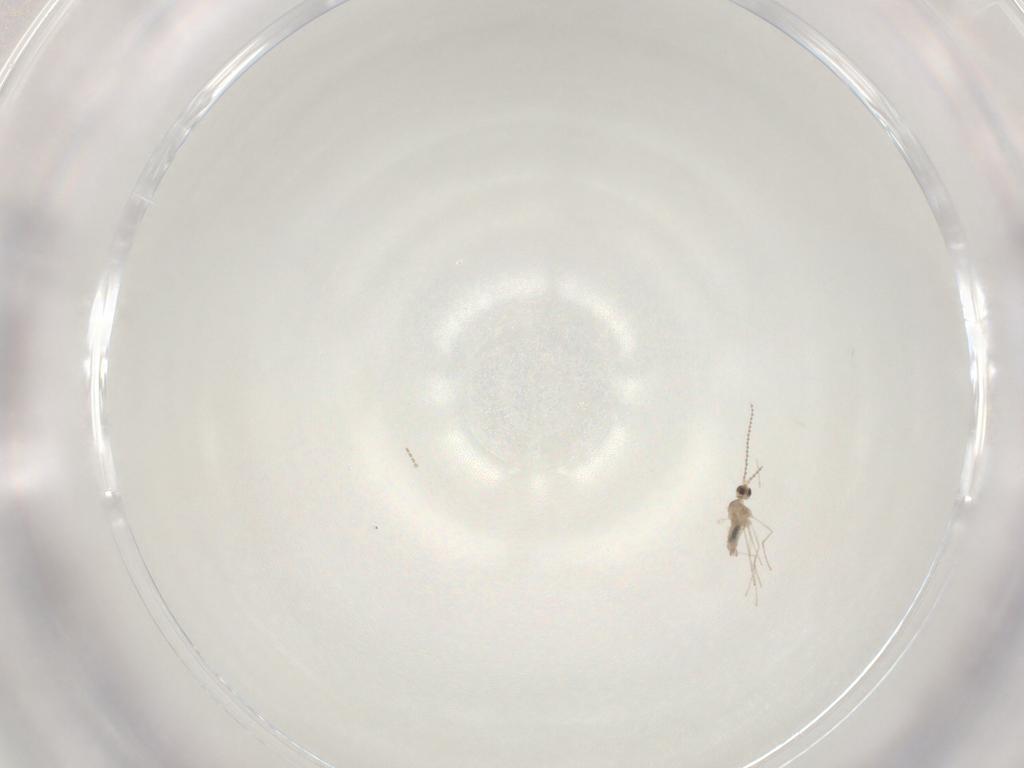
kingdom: Animalia
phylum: Arthropoda
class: Insecta
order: Diptera
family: Cecidomyiidae
